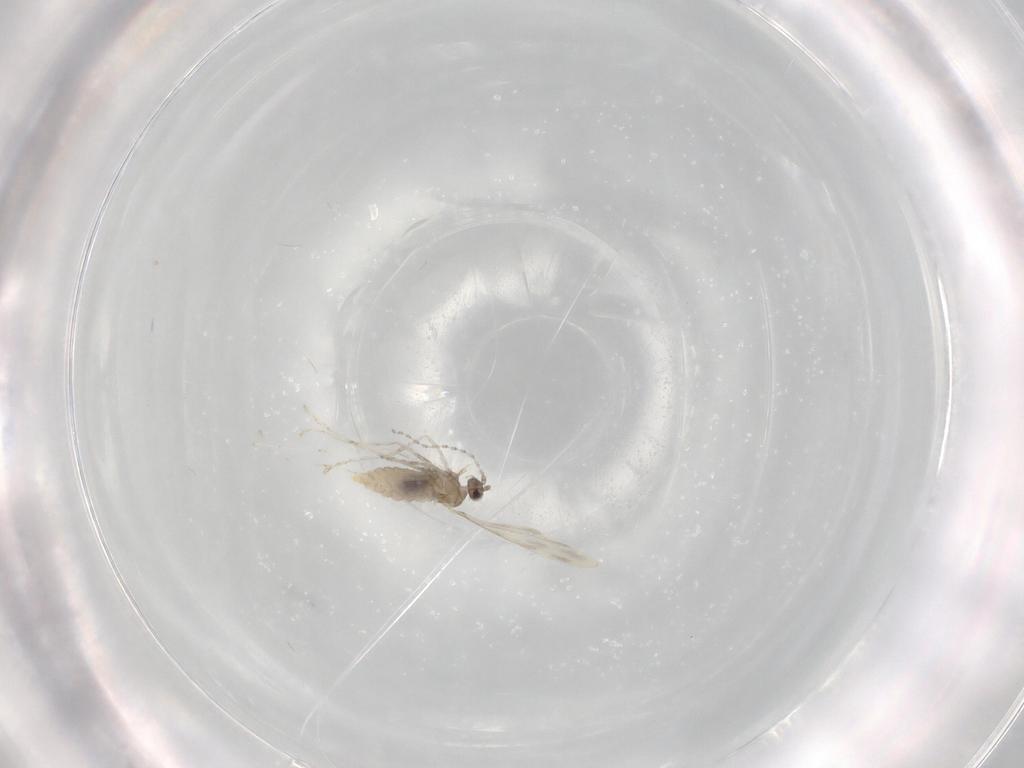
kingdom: Animalia
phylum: Arthropoda
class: Insecta
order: Diptera
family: Cecidomyiidae
